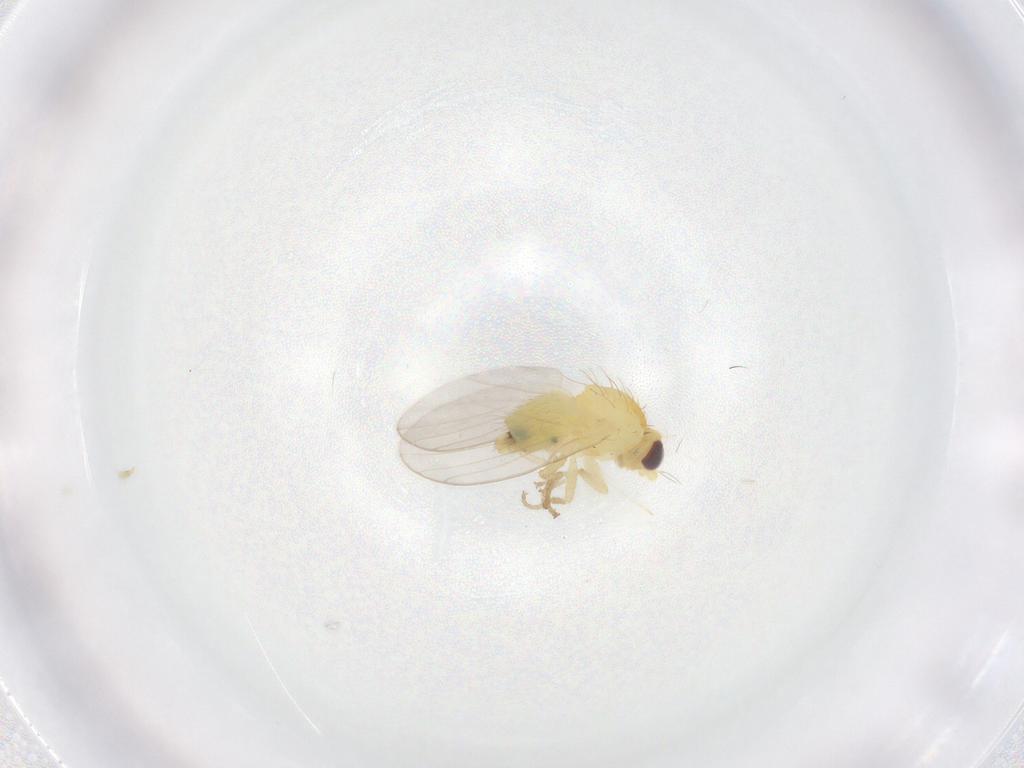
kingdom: Animalia
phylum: Arthropoda
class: Insecta
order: Diptera
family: Agromyzidae
